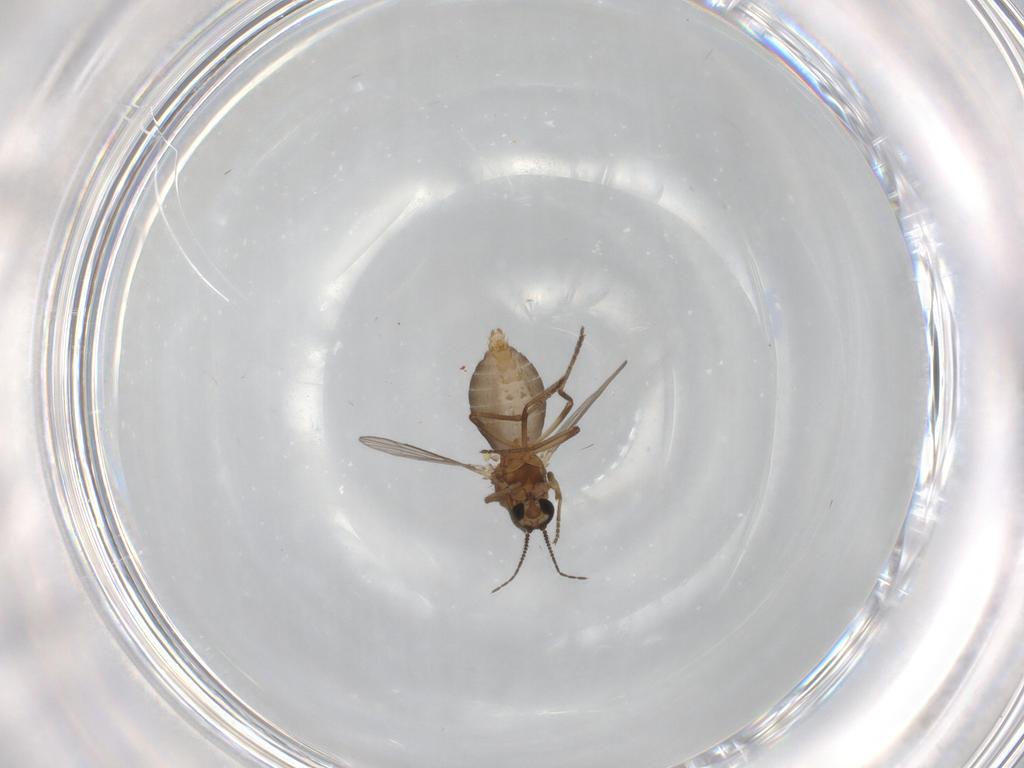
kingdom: Animalia
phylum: Arthropoda
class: Insecta
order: Diptera
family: Ceratopogonidae
